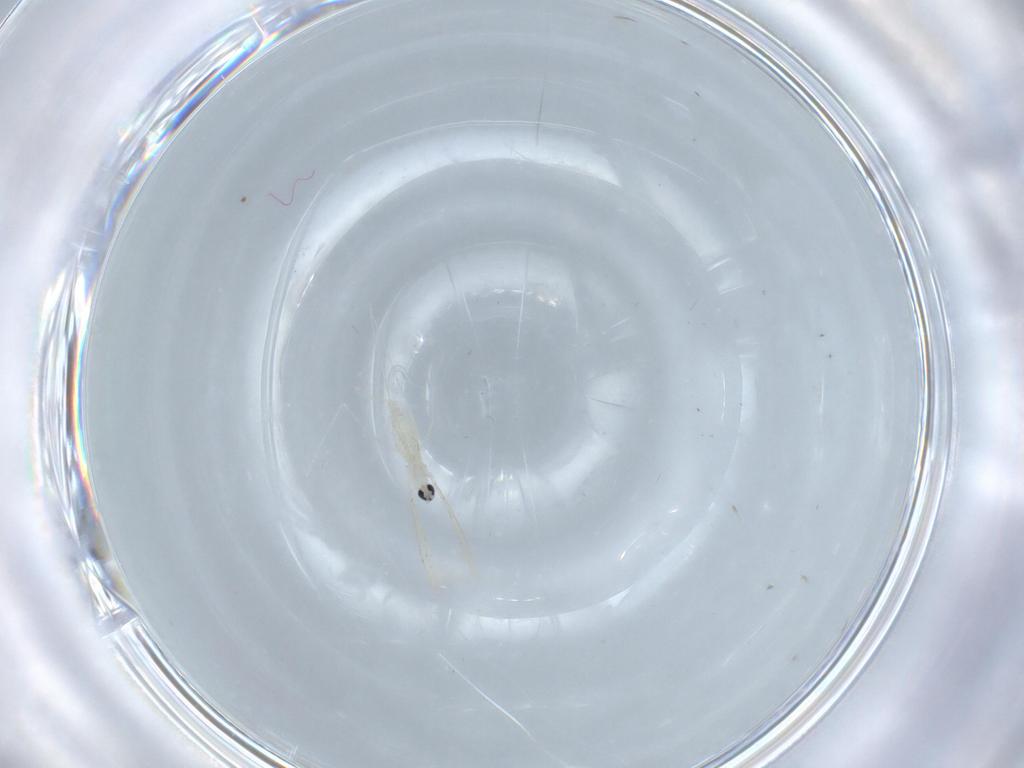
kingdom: Animalia
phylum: Arthropoda
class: Insecta
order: Diptera
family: Cecidomyiidae
